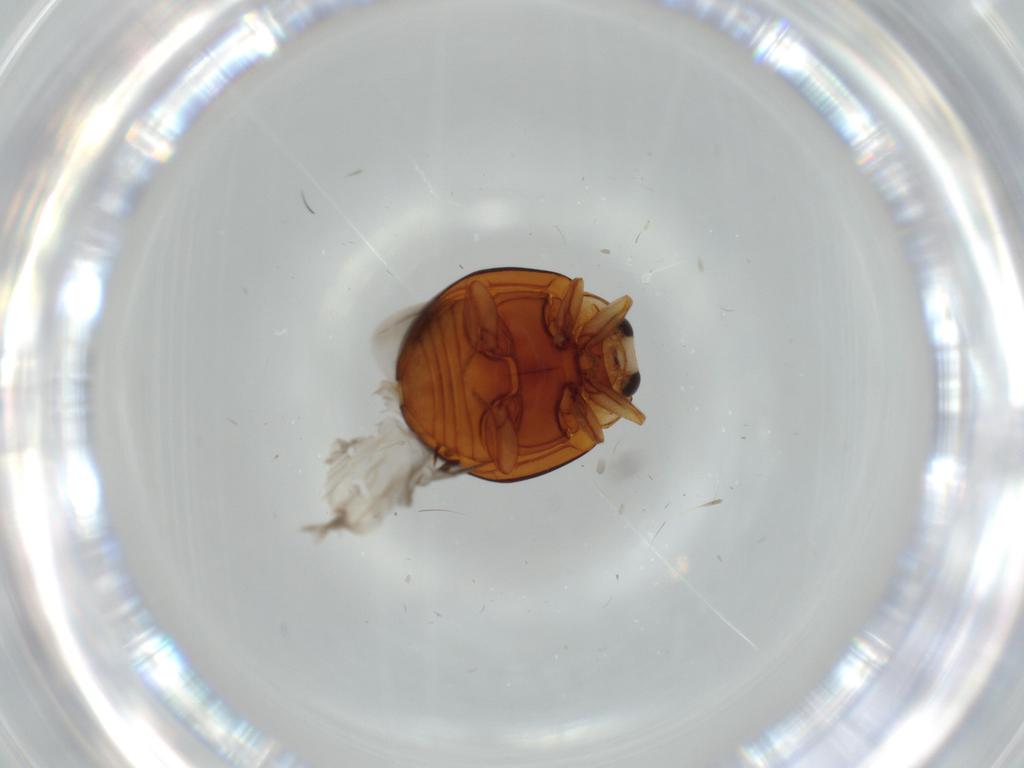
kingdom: Animalia
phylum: Arthropoda
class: Insecta
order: Coleoptera
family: Coccinellidae
